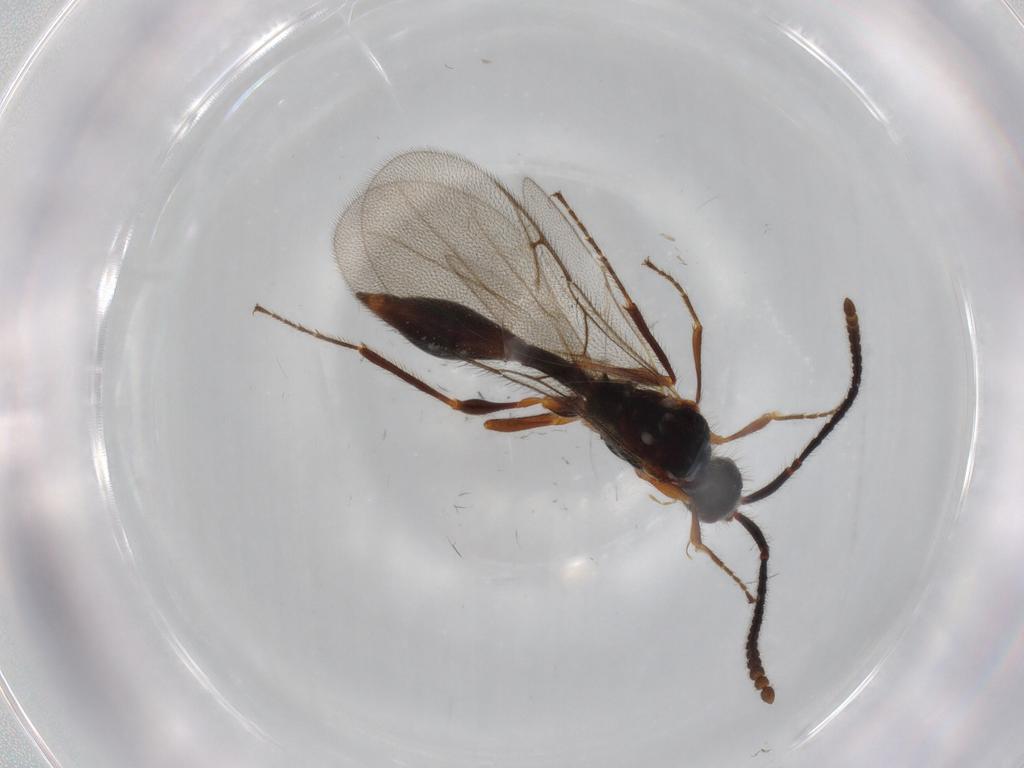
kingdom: Animalia
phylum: Arthropoda
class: Insecta
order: Hymenoptera
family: Diapriidae
